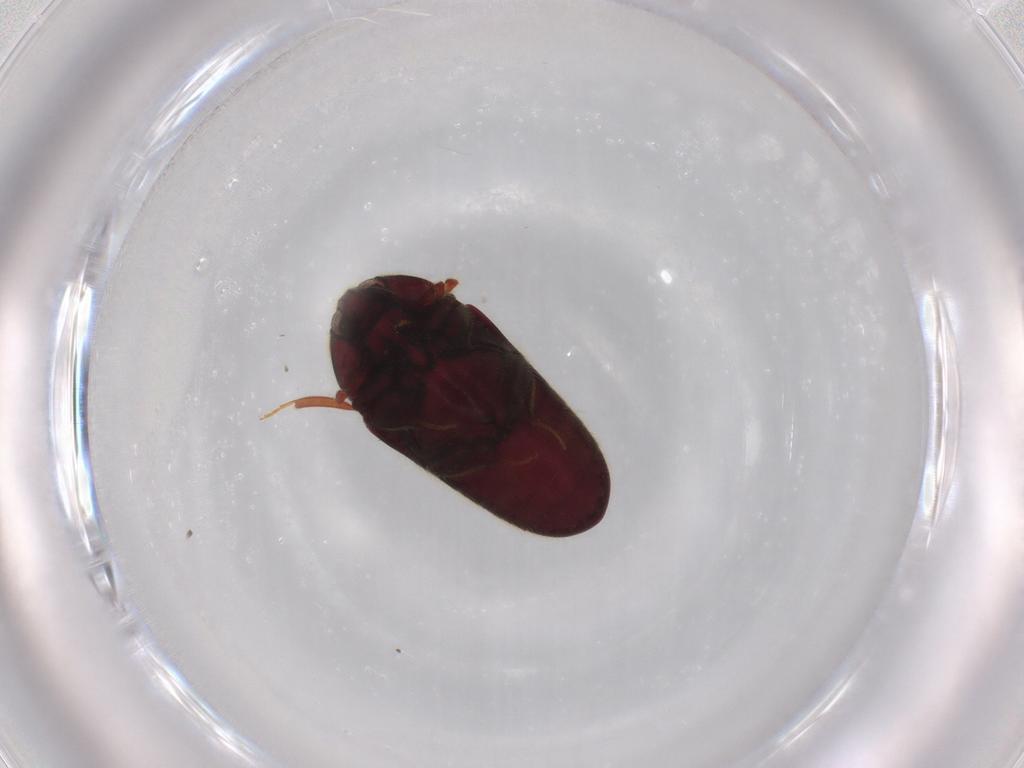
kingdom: Animalia
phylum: Arthropoda
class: Insecta
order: Coleoptera
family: Throscidae
